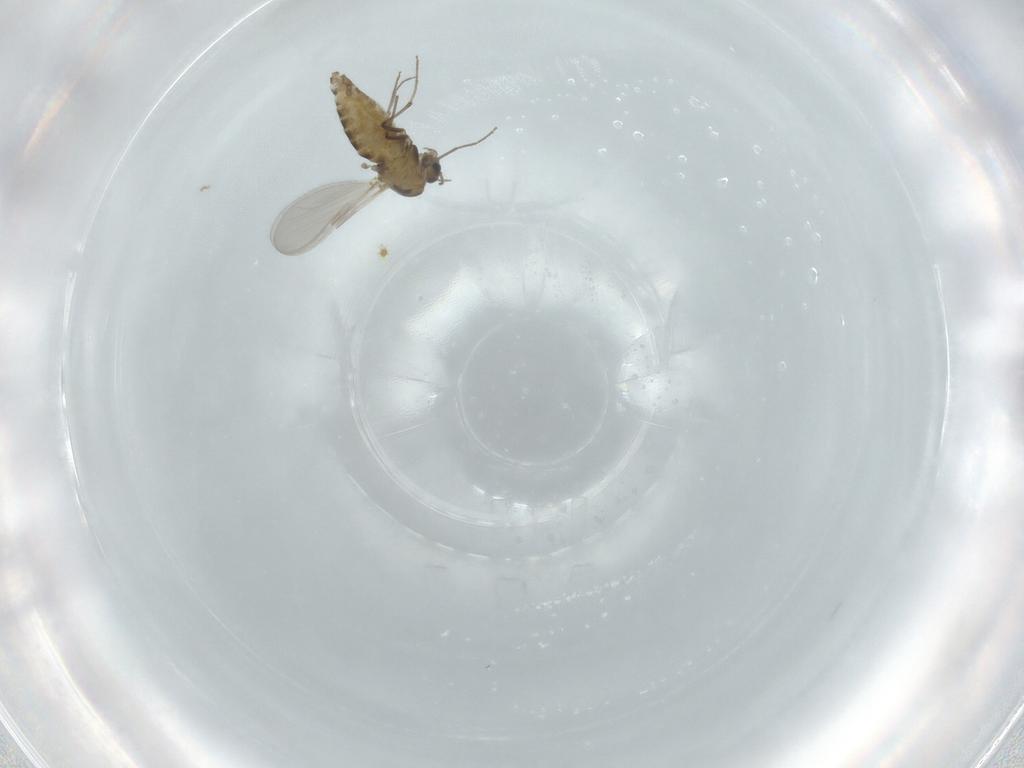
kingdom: Animalia
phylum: Arthropoda
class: Insecta
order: Diptera
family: Chironomidae
